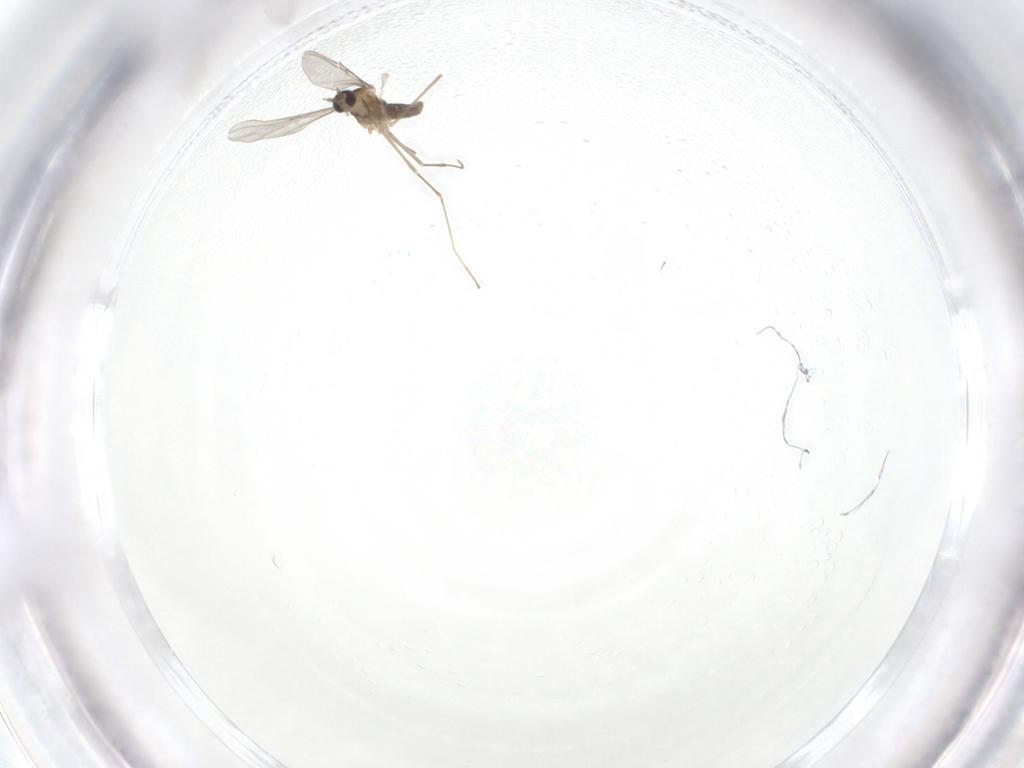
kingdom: Animalia
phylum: Arthropoda
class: Insecta
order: Diptera
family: Cecidomyiidae
